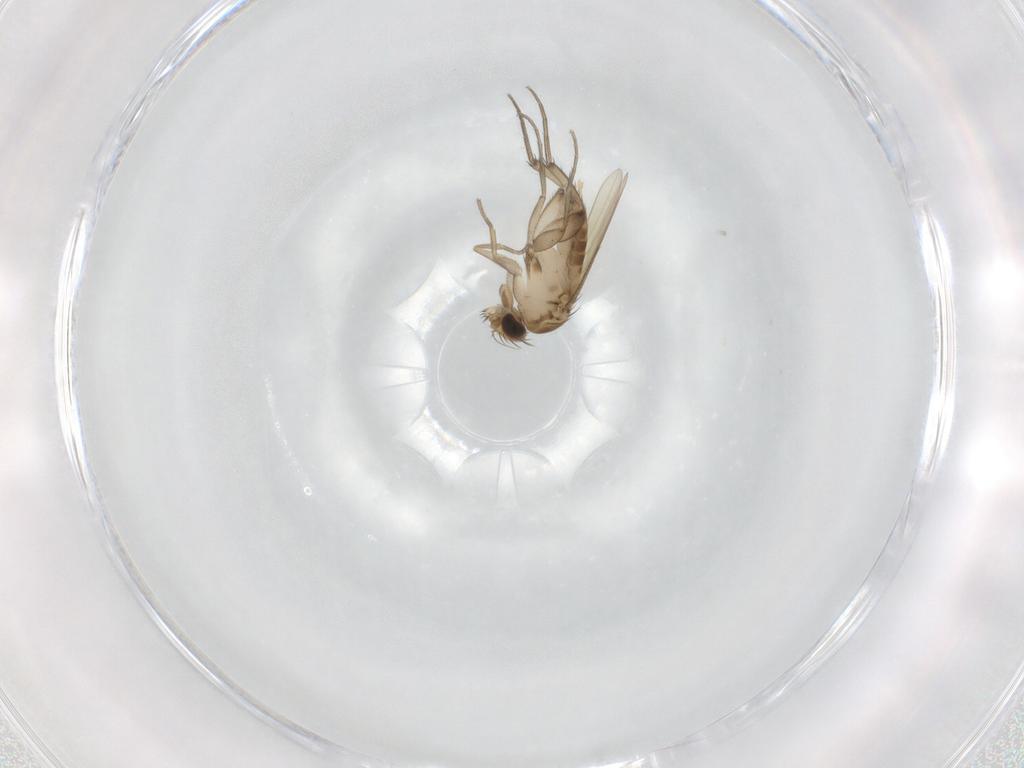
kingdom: Animalia
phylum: Arthropoda
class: Insecta
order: Diptera
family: Phoridae
